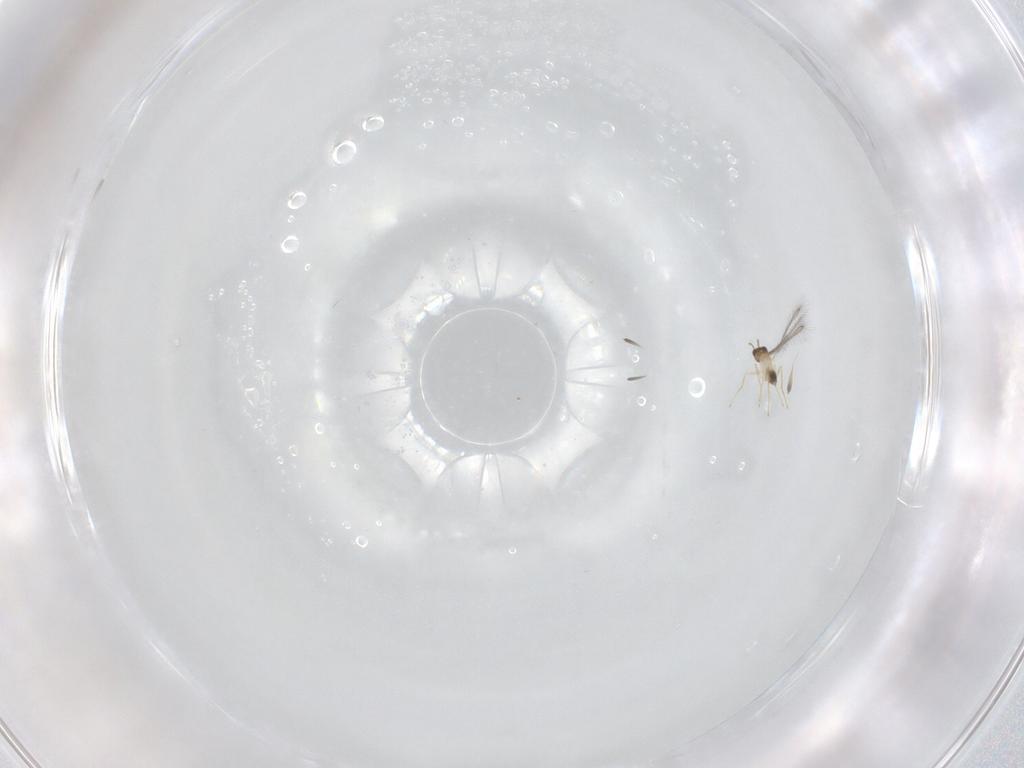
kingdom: Animalia
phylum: Arthropoda
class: Insecta
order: Hymenoptera
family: Mymaridae
